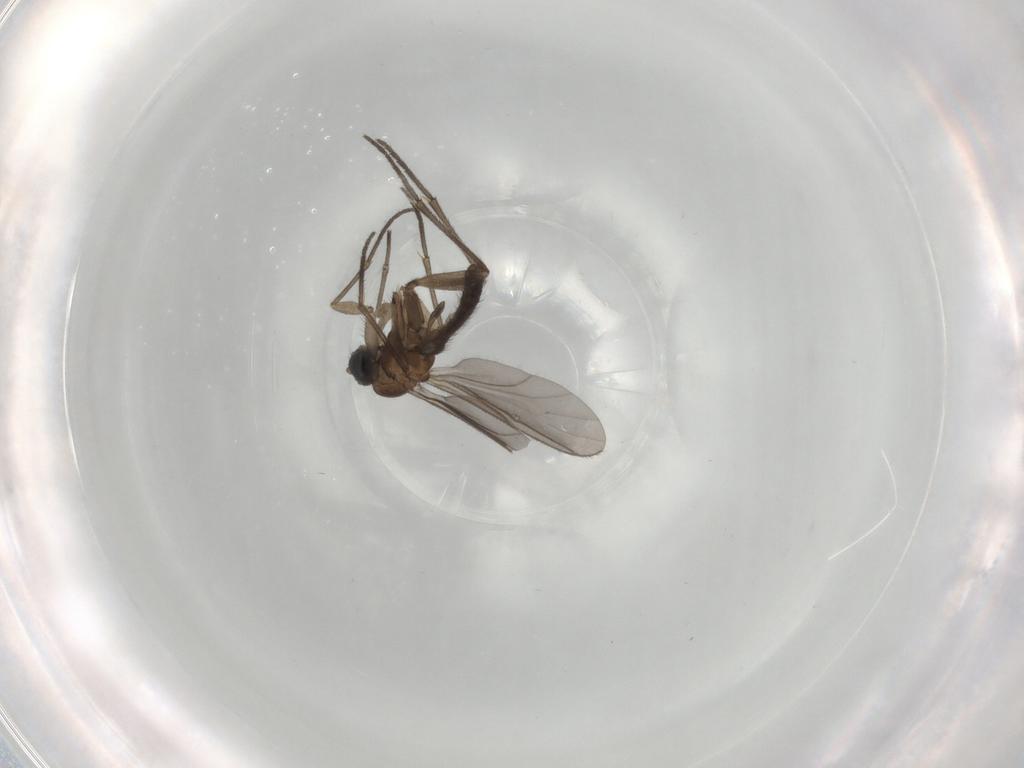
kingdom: Animalia
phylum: Arthropoda
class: Insecta
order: Diptera
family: Sciaridae
